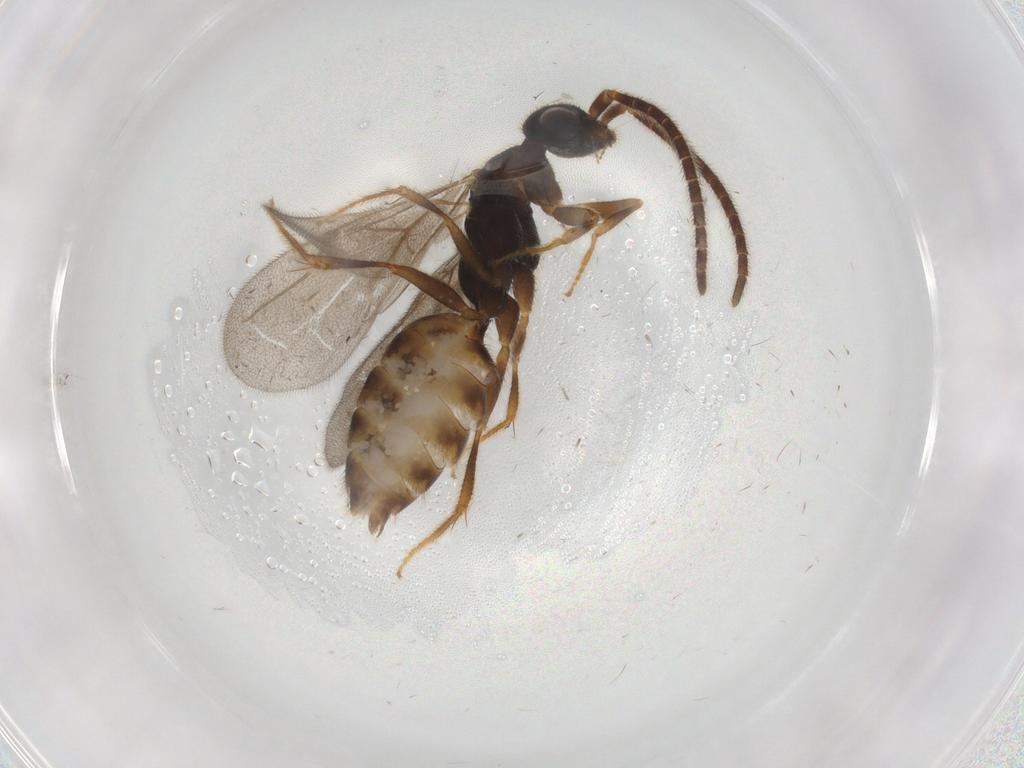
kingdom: Animalia
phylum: Arthropoda
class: Insecta
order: Hymenoptera
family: Bethylidae
